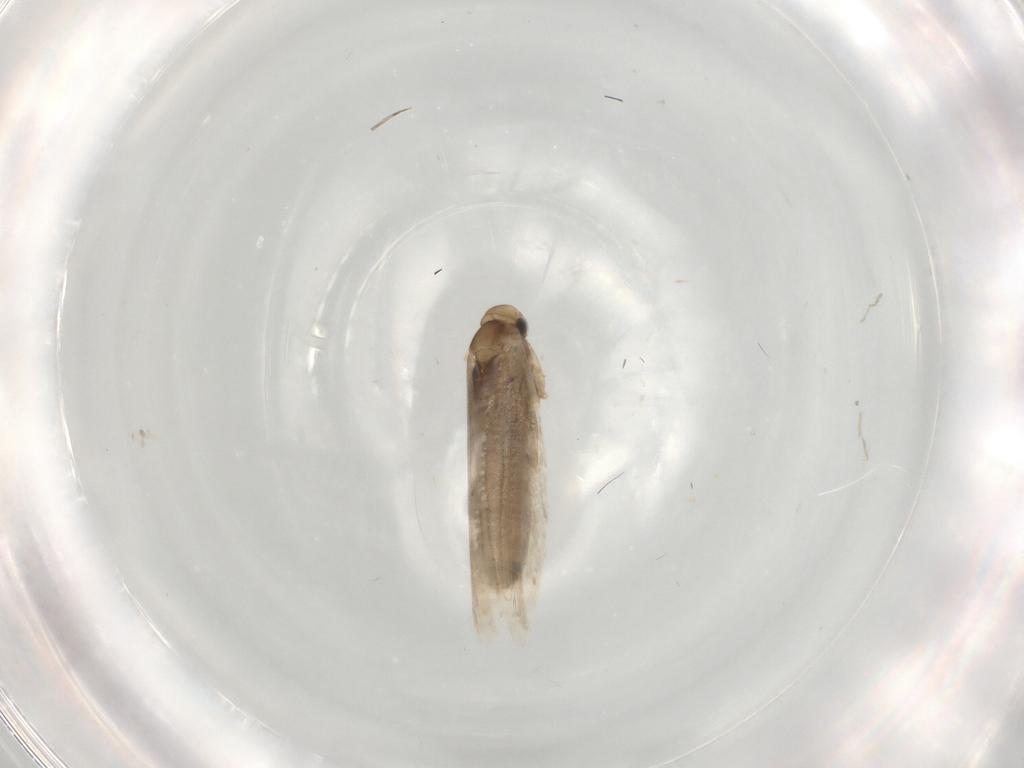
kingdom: Animalia
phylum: Arthropoda
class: Insecta
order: Lepidoptera
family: Gracillariidae
